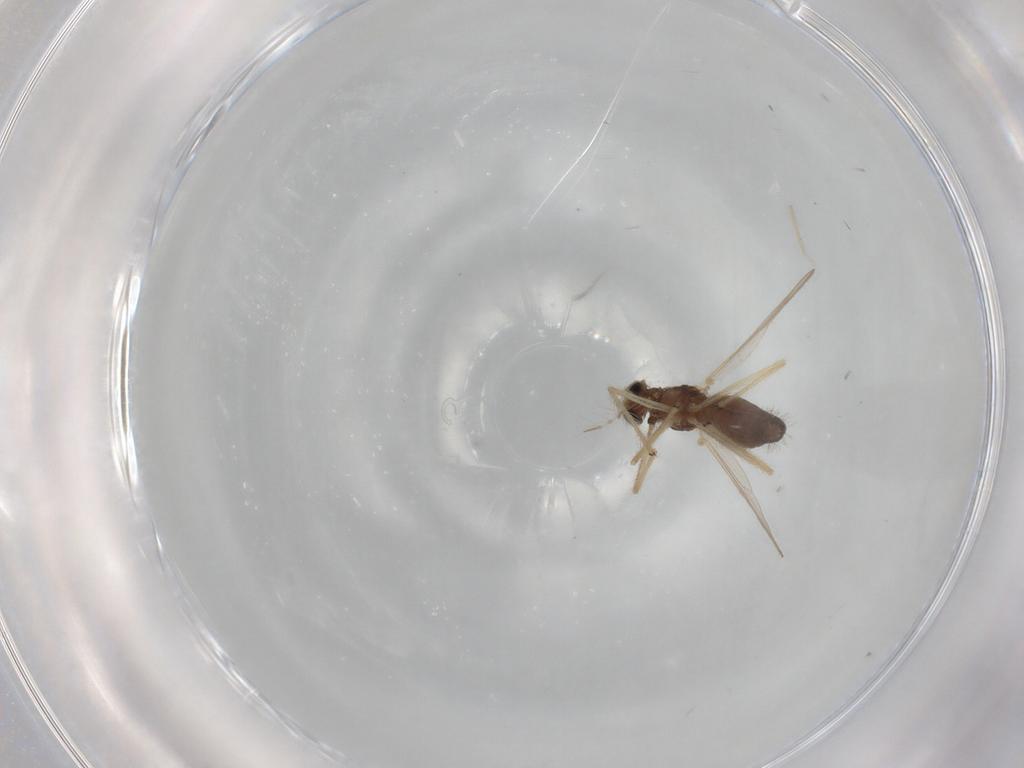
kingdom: Animalia
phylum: Arthropoda
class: Insecta
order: Diptera
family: Chironomidae
